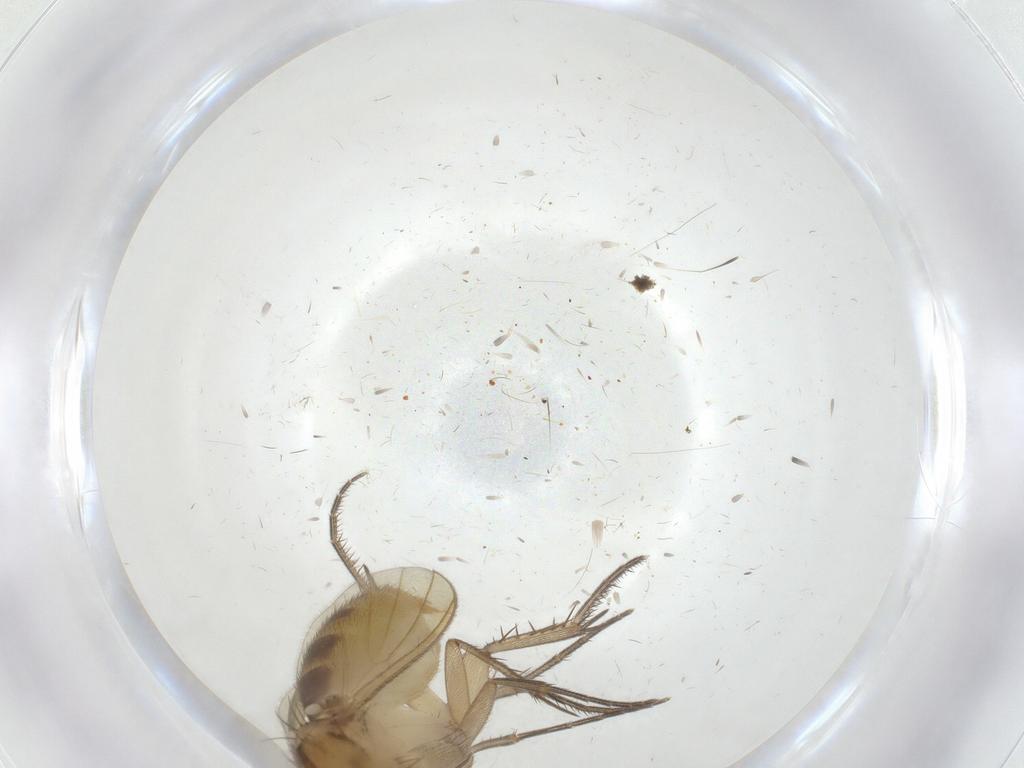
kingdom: Animalia
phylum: Arthropoda
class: Insecta
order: Diptera
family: Mycetophilidae
